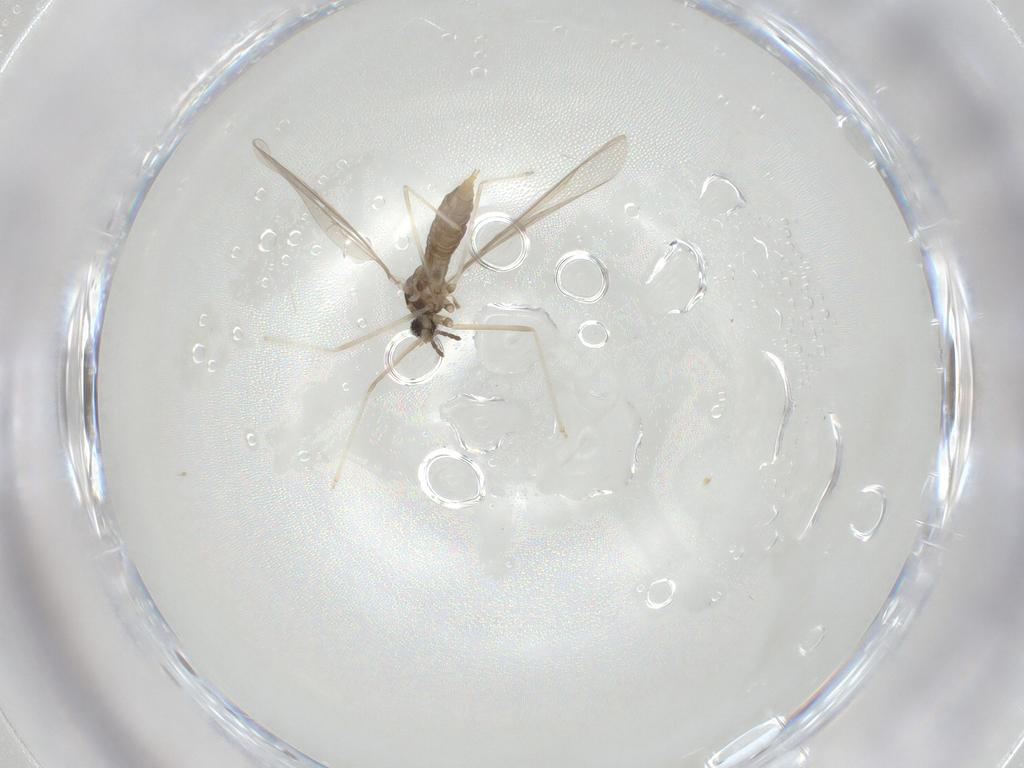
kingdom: Animalia
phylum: Arthropoda
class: Insecta
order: Diptera
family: Cecidomyiidae
